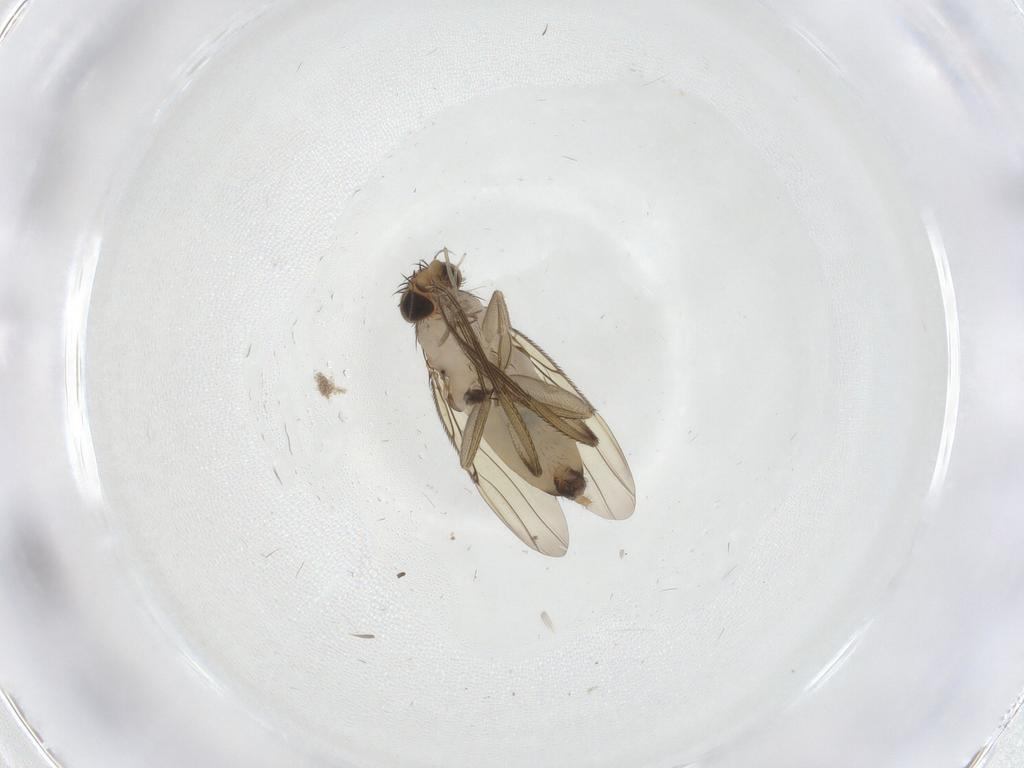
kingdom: Animalia
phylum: Arthropoda
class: Insecta
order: Diptera
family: Phoridae
